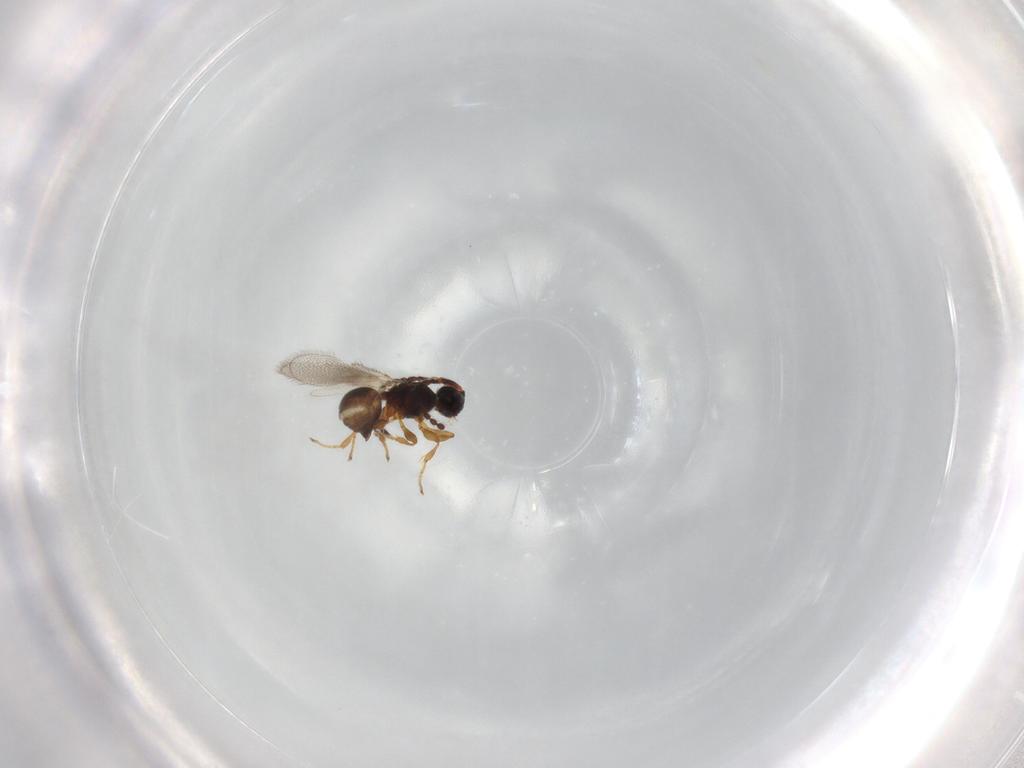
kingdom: Animalia
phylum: Arthropoda
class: Insecta
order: Hymenoptera
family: Diapriidae
